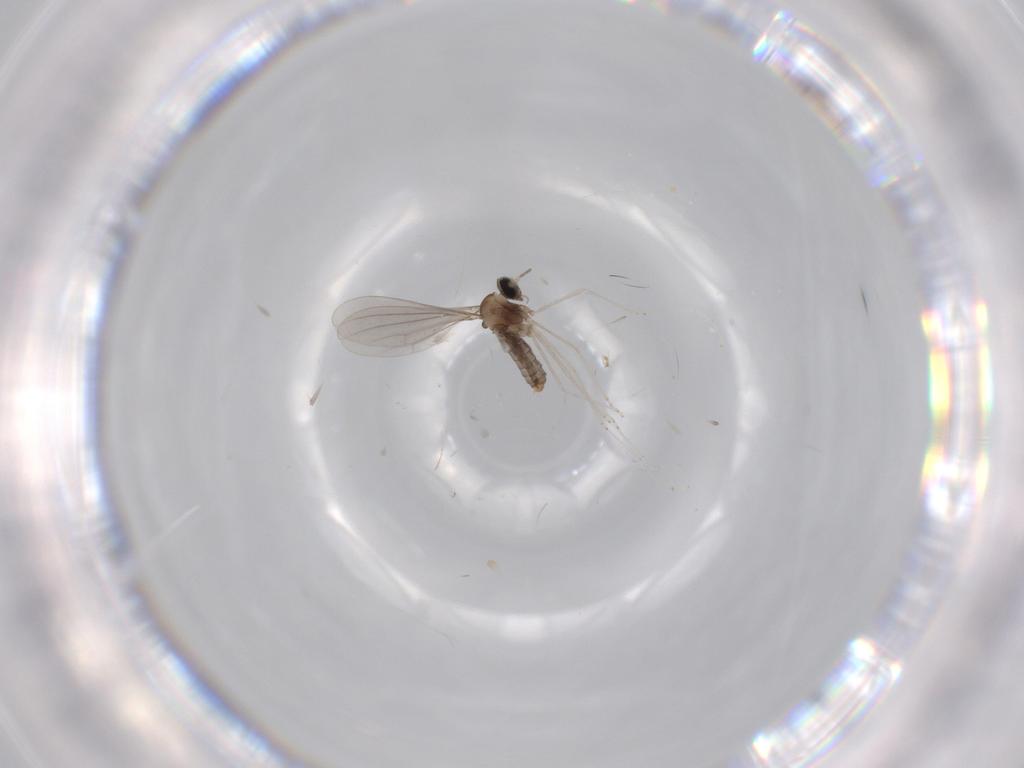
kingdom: Animalia
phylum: Arthropoda
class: Insecta
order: Diptera
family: Cecidomyiidae
